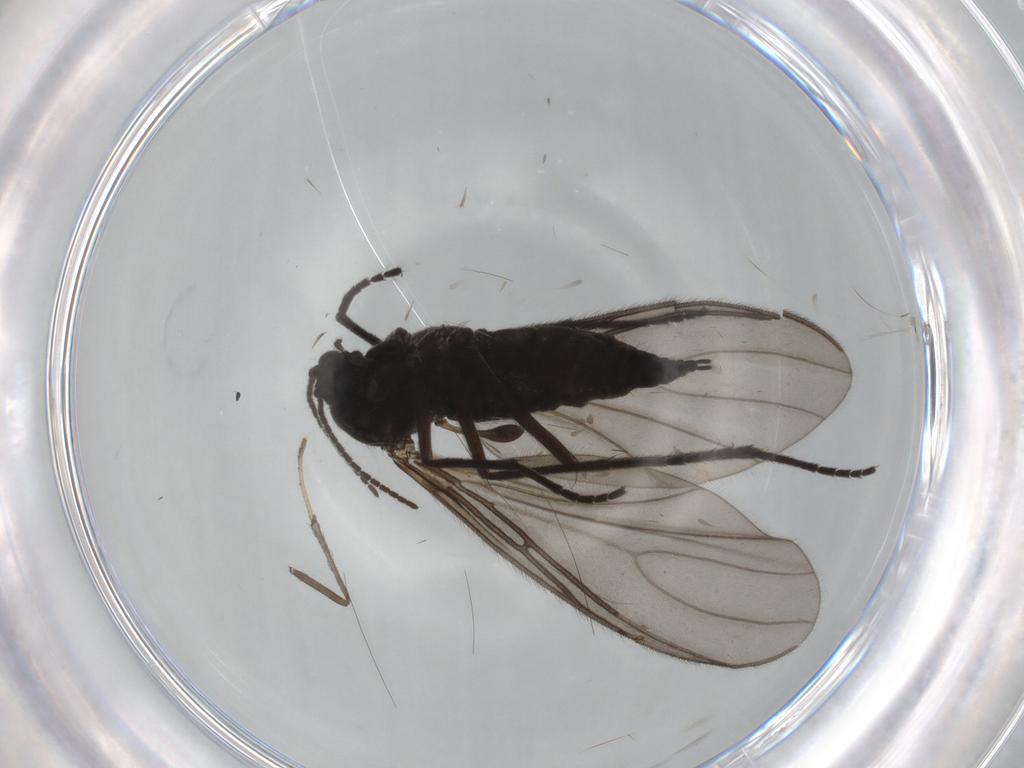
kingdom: Animalia
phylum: Arthropoda
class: Insecta
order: Diptera
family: Sciaridae
